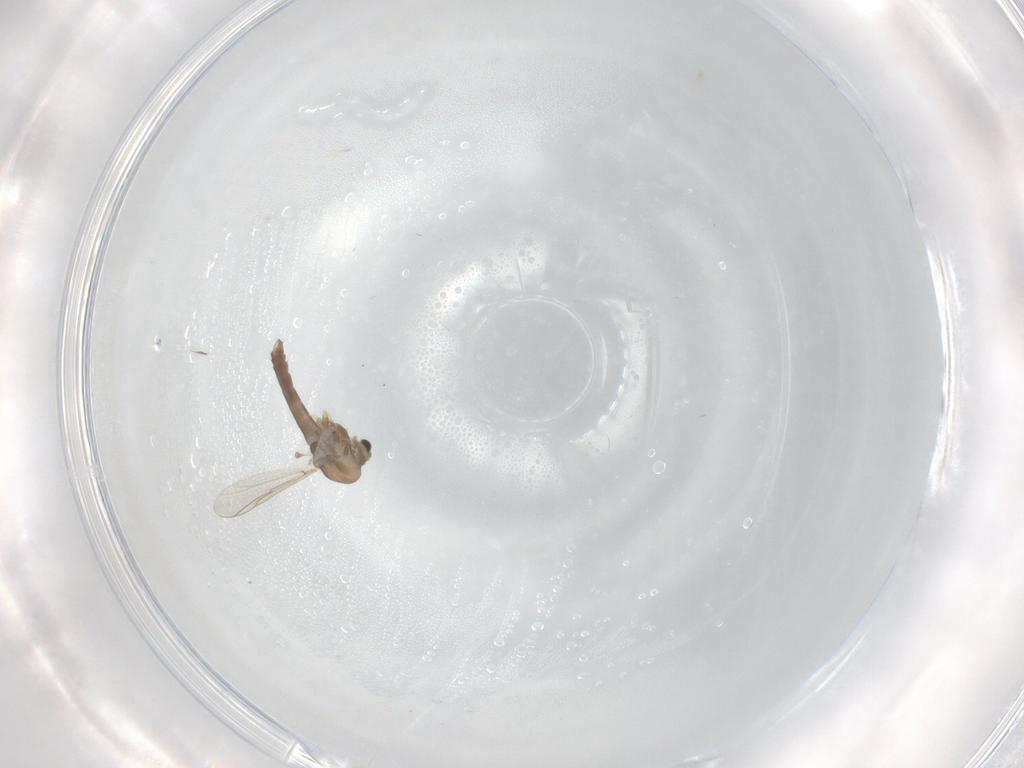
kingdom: Animalia
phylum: Arthropoda
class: Insecta
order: Diptera
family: Chironomidae
